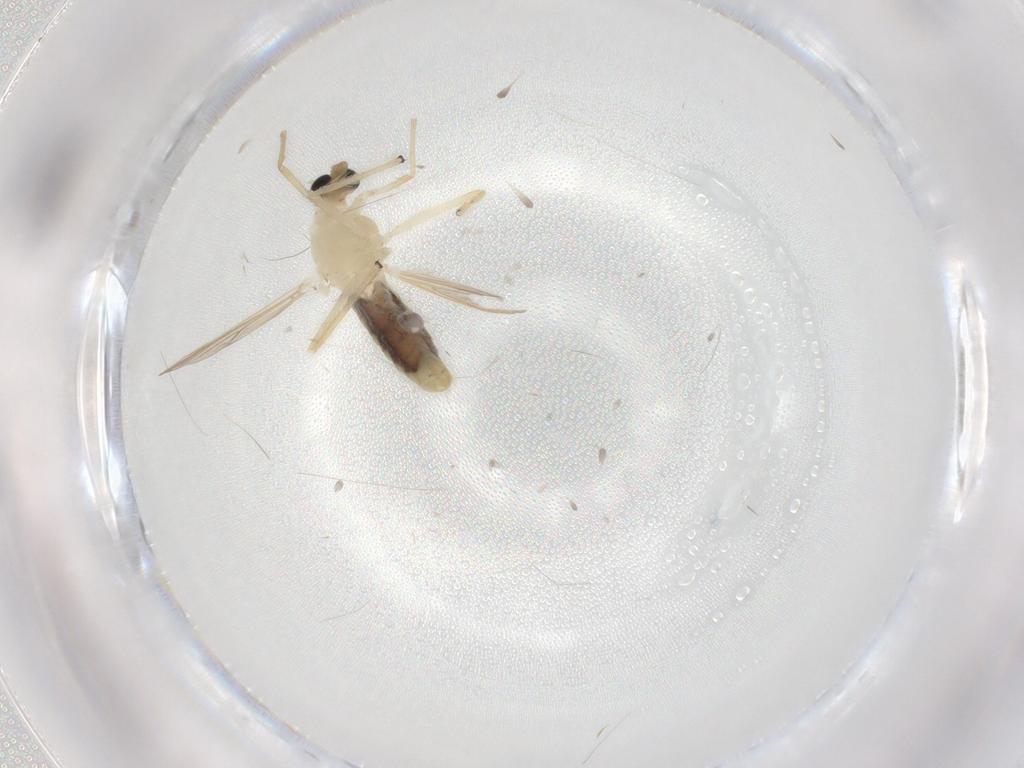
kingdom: Animalia
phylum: Arthropoda
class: Insecta
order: Diptera
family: Chironomidae
